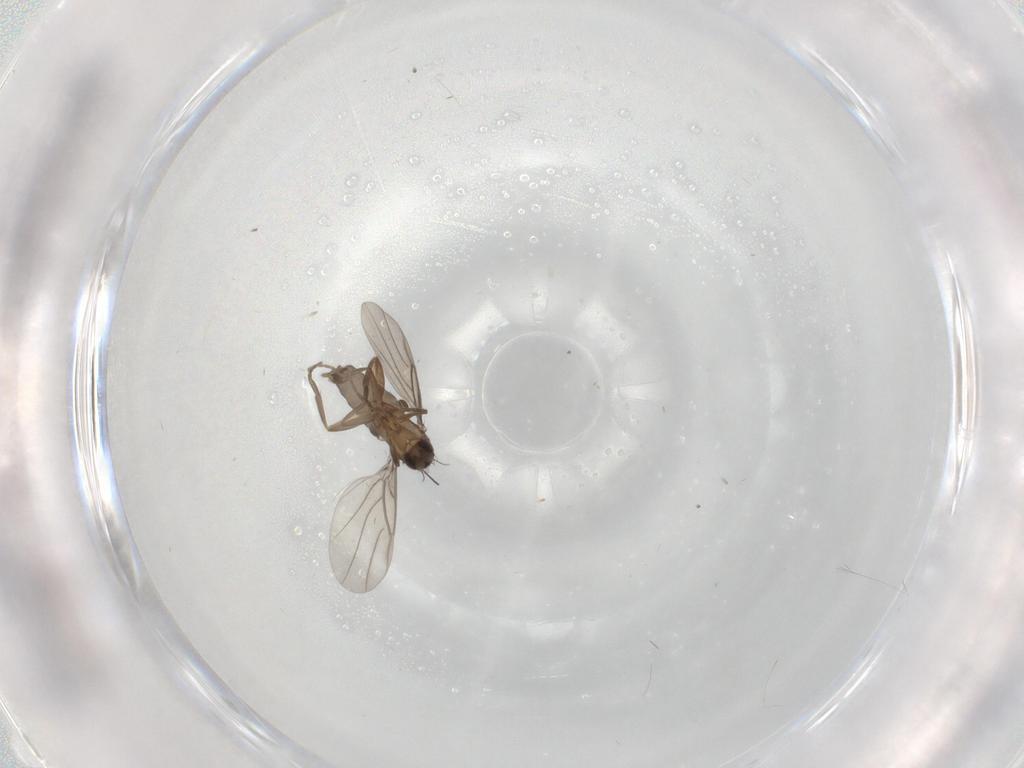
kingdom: Animalia
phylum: Arthropoda
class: Insecta
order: Diptera
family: Phoridae
